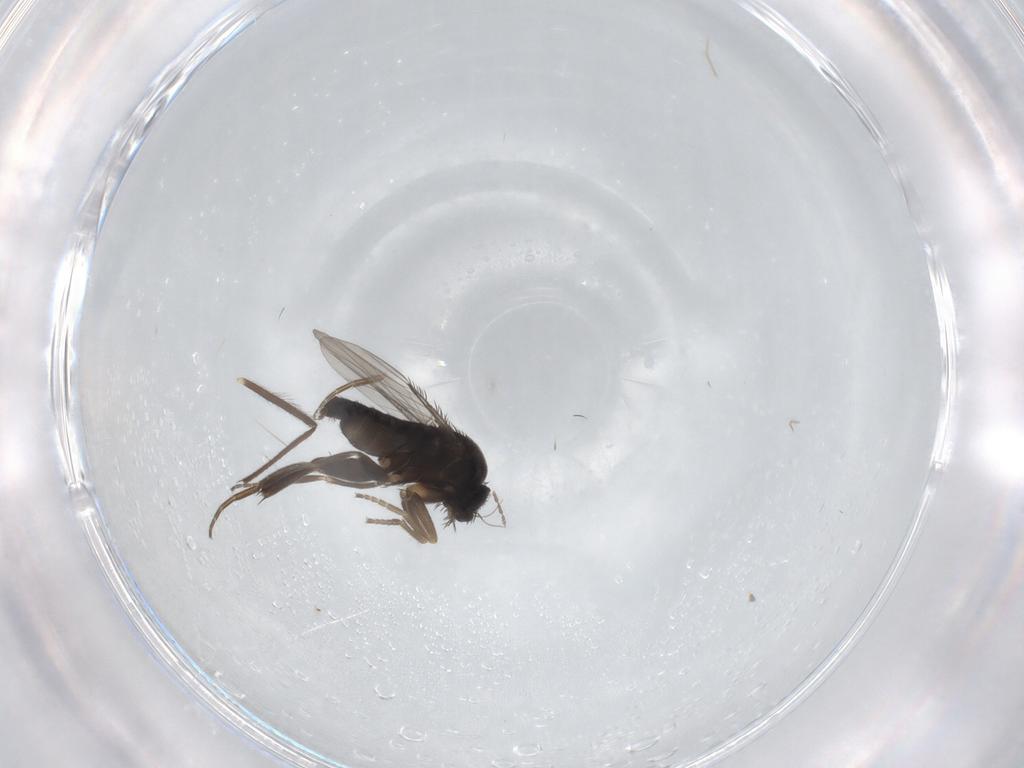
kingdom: Animalia
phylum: Arthropoda
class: Insecta
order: Diptera
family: Phoridae
